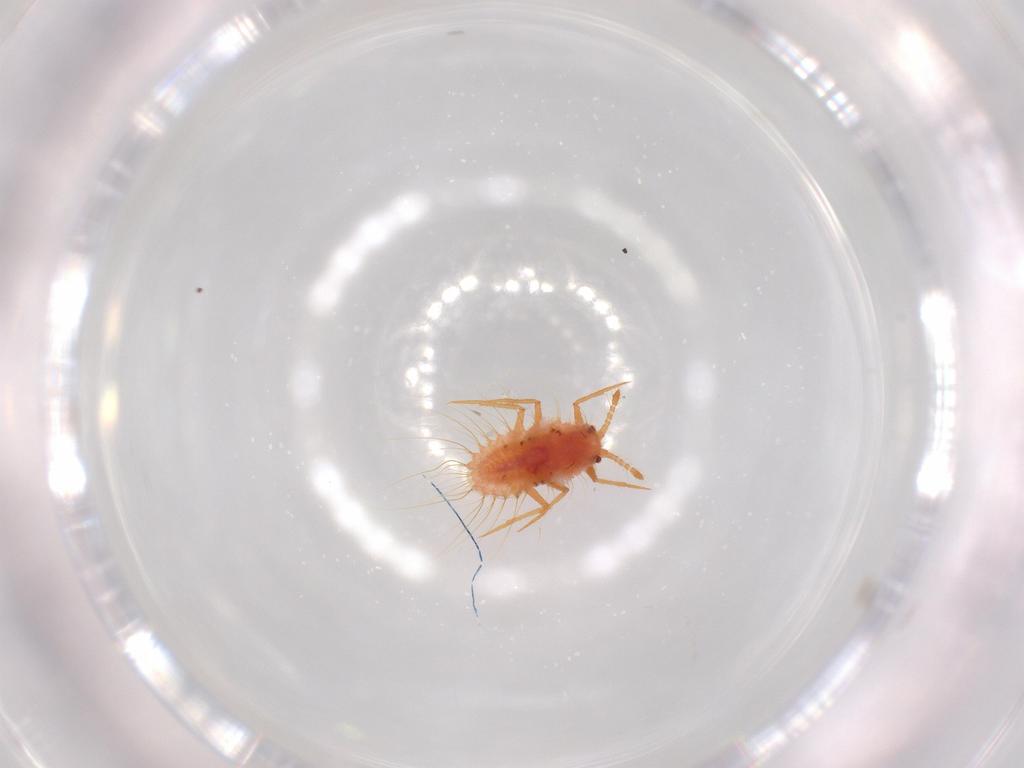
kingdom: Animalia
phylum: Arthropoda
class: Insecta
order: Hemiptera
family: Monophlebidae
